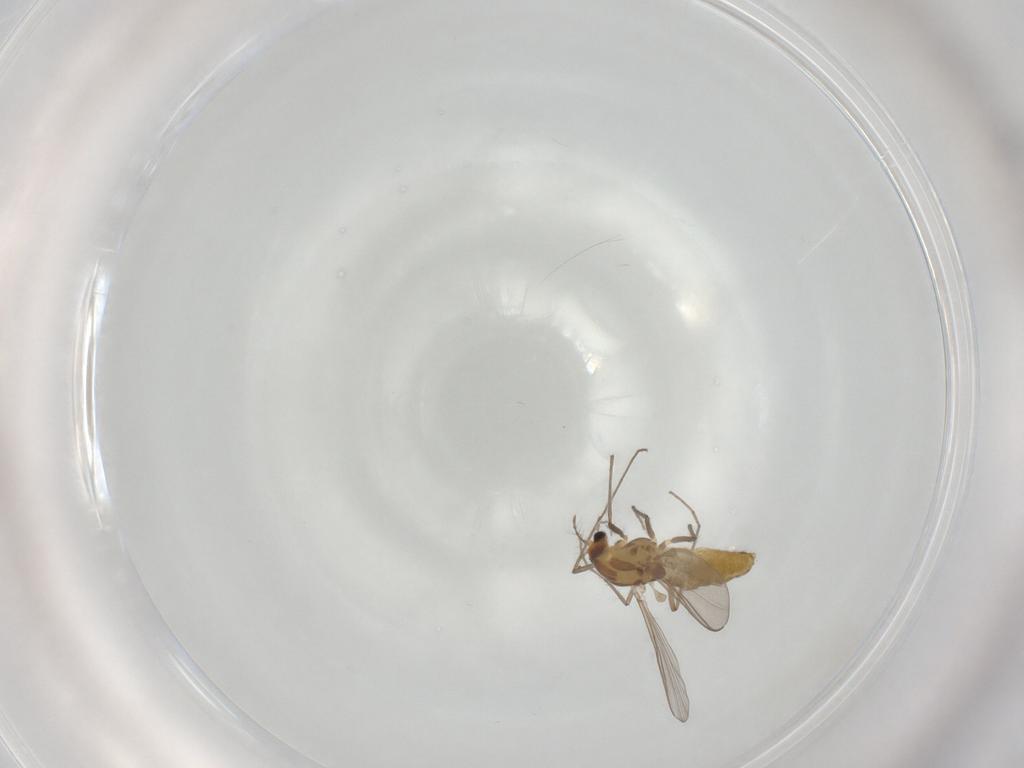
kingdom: Animalia
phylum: Arthropoda
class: Insecta
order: Diptera
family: Chironomidae
